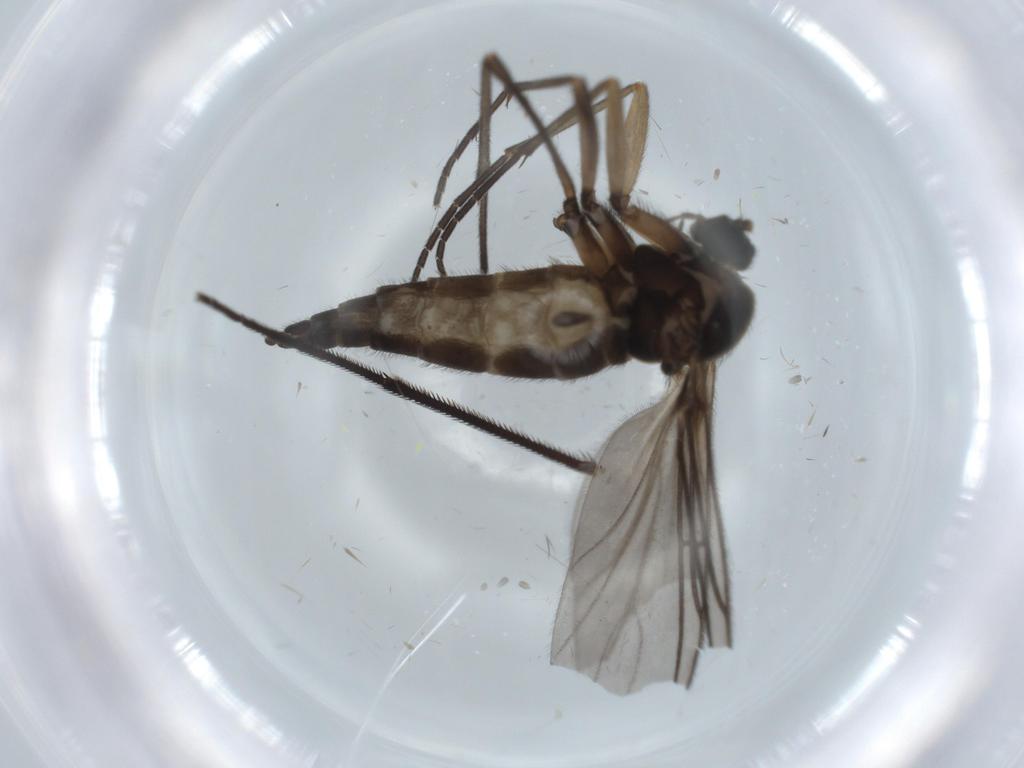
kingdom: Animalia
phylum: Arthropoda
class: Insecta
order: Diptera
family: Sciaridae
